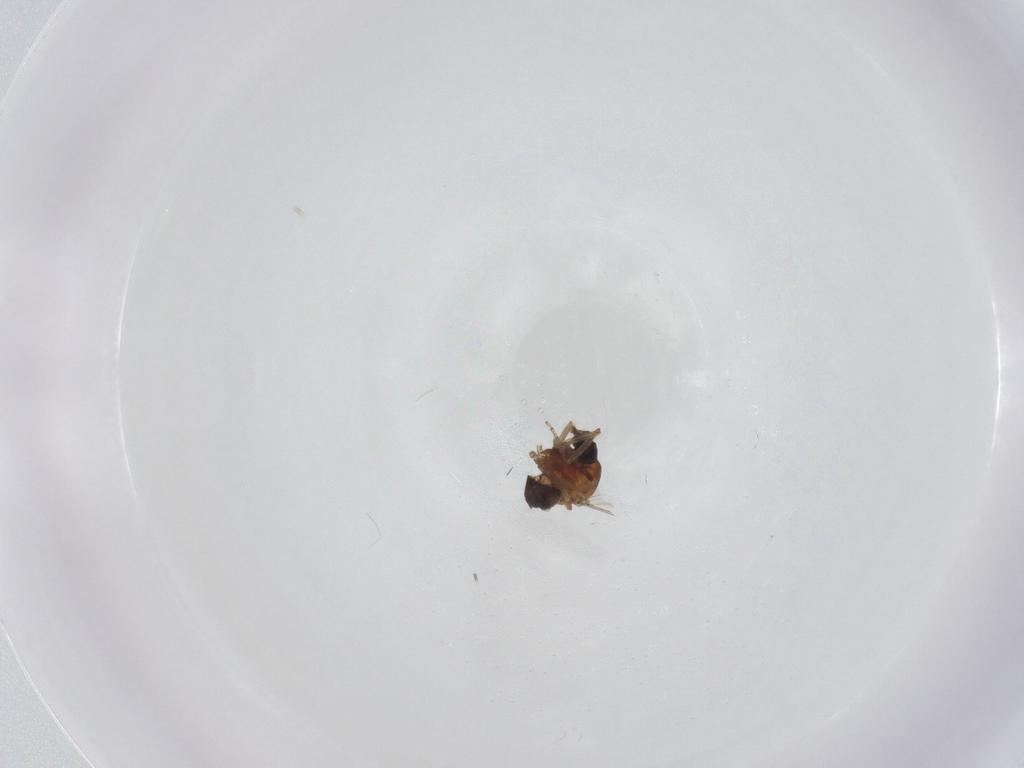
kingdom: Animalia
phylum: Arthropoda
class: Insecta
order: Diptera
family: Ceratopogonidae
